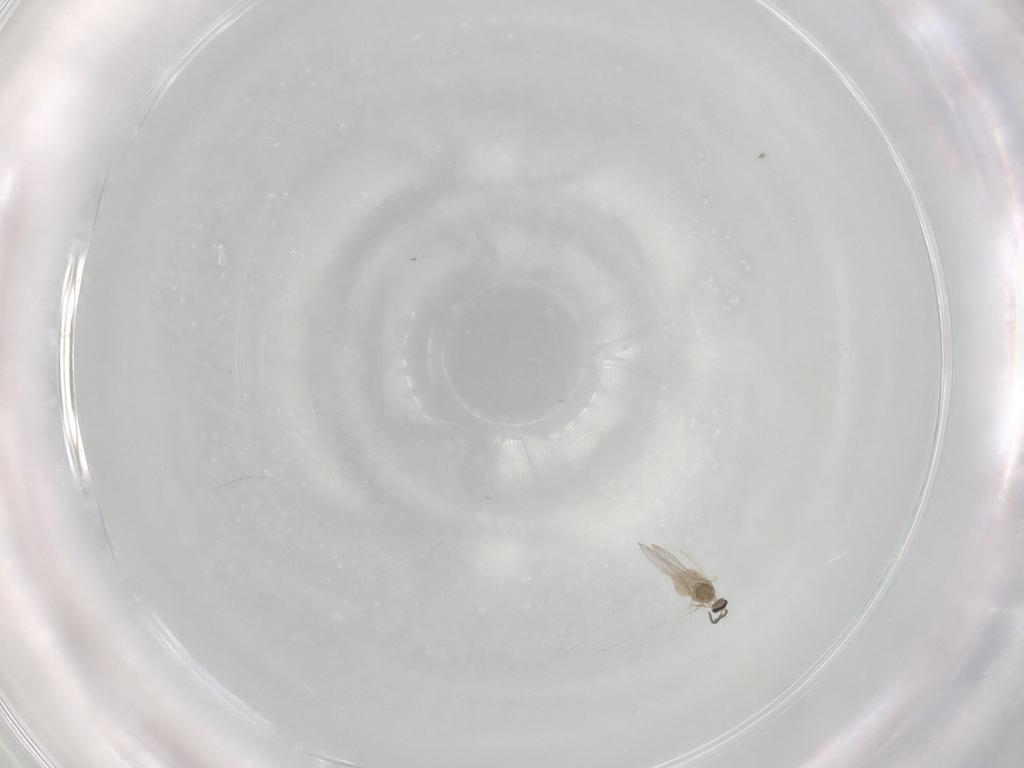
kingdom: Animalia
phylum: Arthropoda
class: Insecta
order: Diptera
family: Cecidomyiidae
